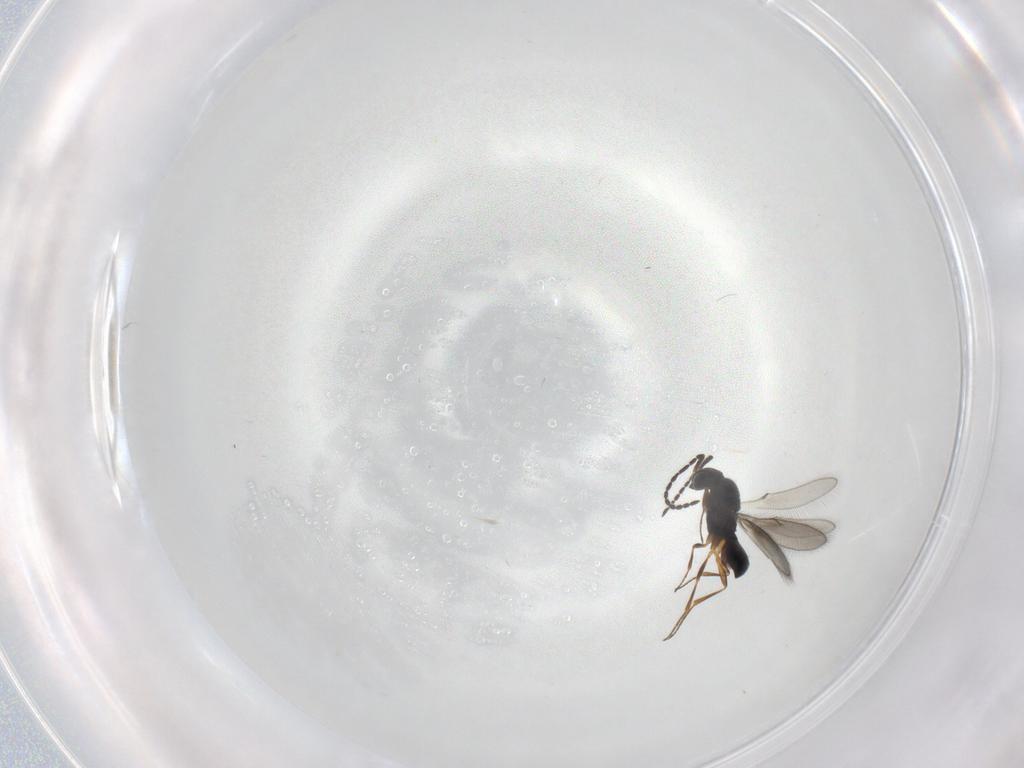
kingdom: Animalia
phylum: Arthropoda
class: Insecta
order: Hymenoptera
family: Scelionidae
